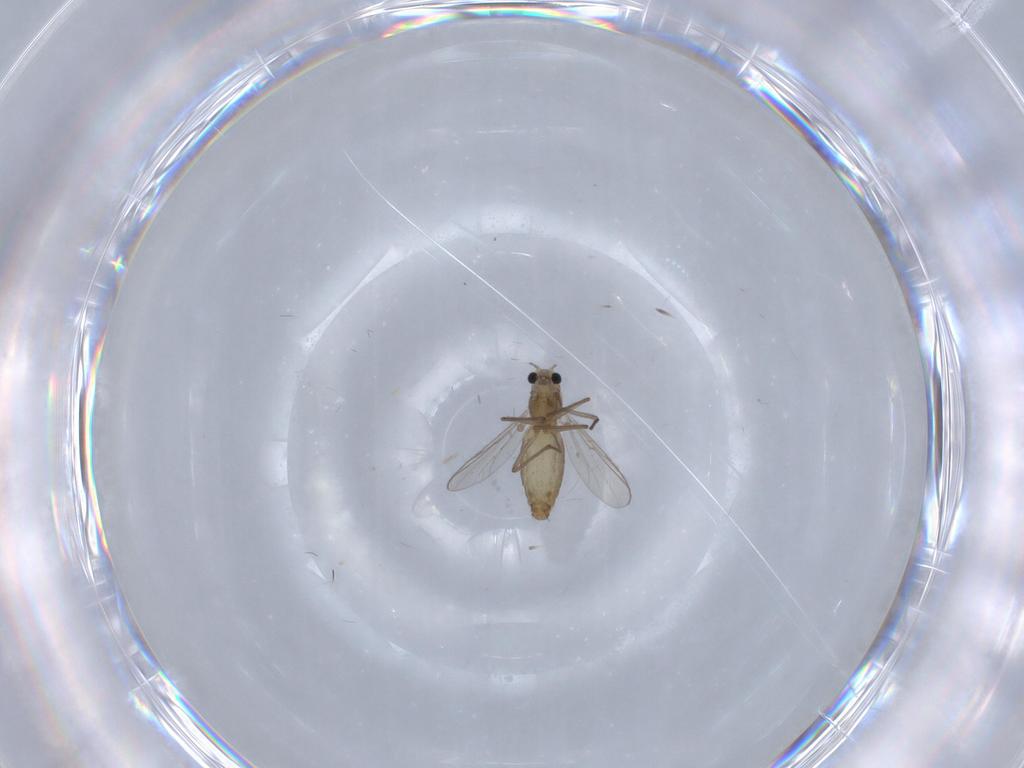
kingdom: Animalia
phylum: Arthropoda
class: Insecta
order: Diptera
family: Chironomidae
